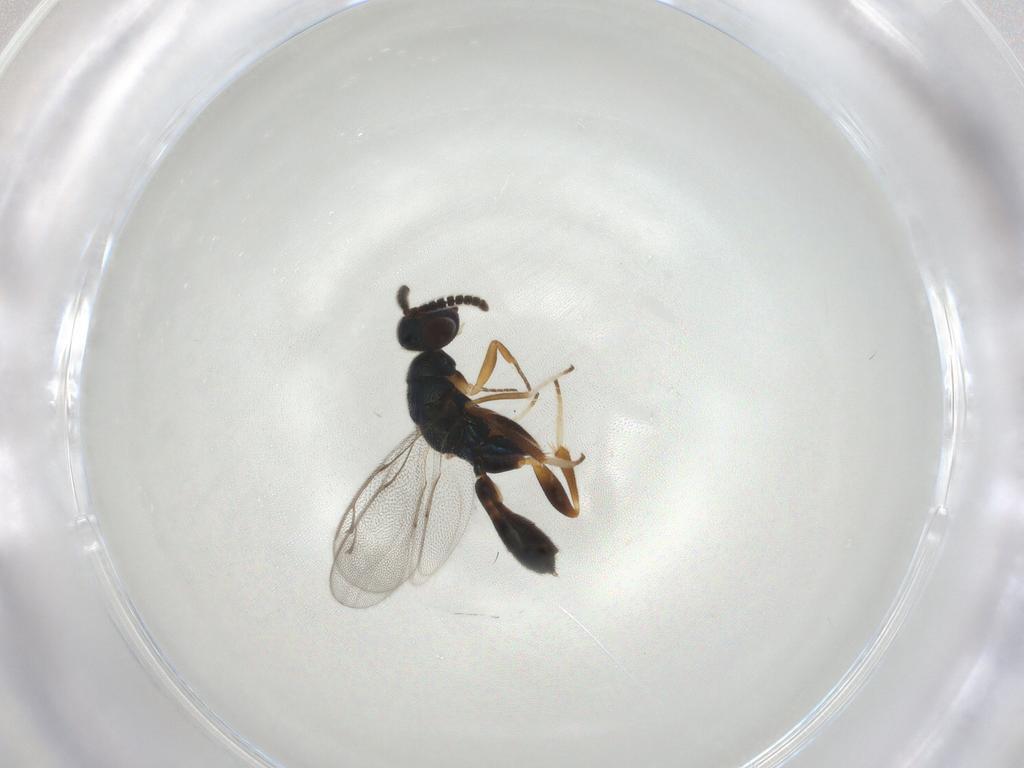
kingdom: Animalia
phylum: Arthropoda
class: Insecta
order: Hymenoptera
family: Cleonyminae
